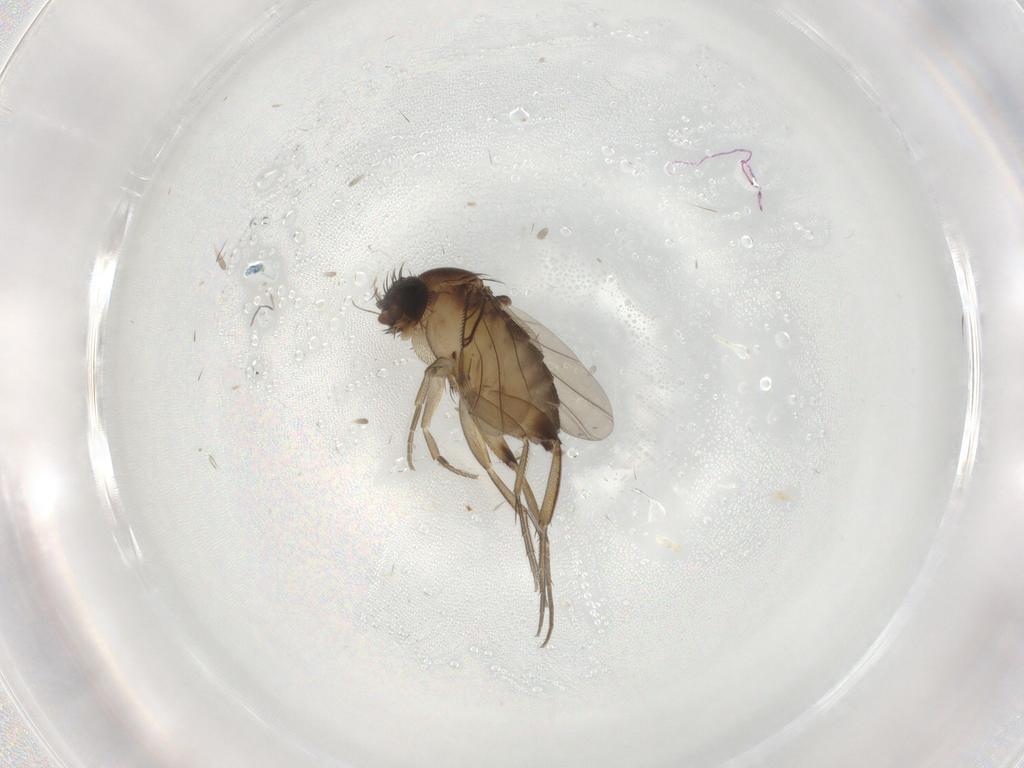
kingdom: Animalia
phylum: Arthropoda
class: Insecta
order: Diptera
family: Phoridae
